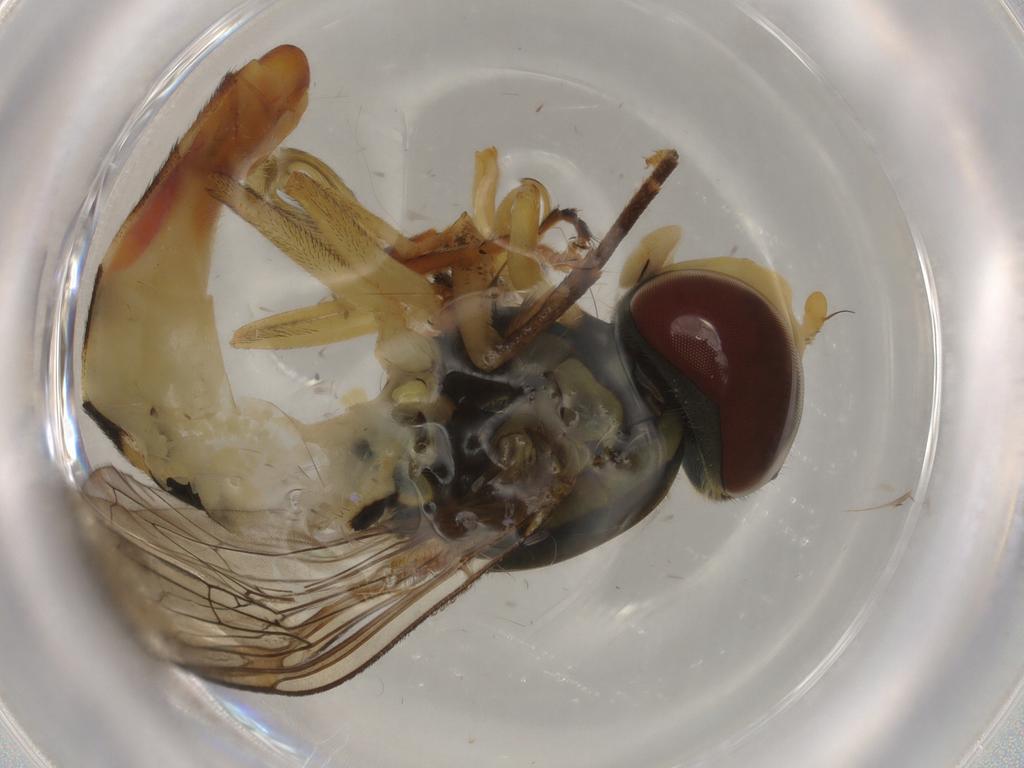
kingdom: Animalia
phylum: Arthropoda
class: Insecta
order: Diptera
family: Syrphidae
